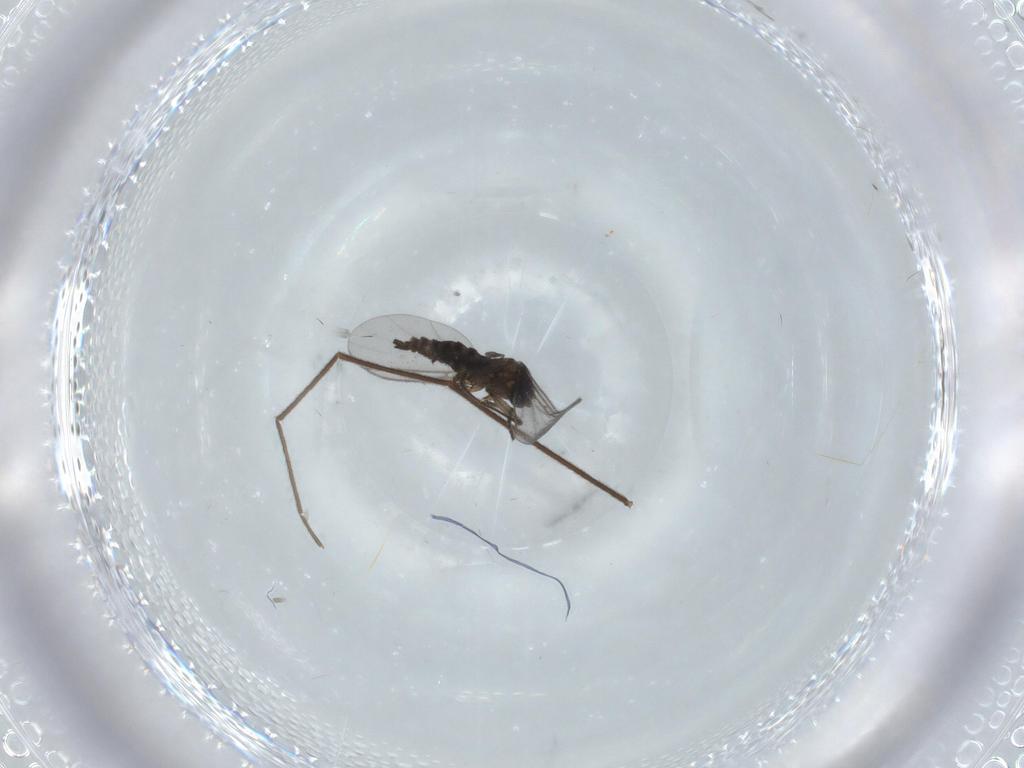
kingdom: Animalia
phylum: Arthropoda
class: Insecta
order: Diptera
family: Chironomidae
